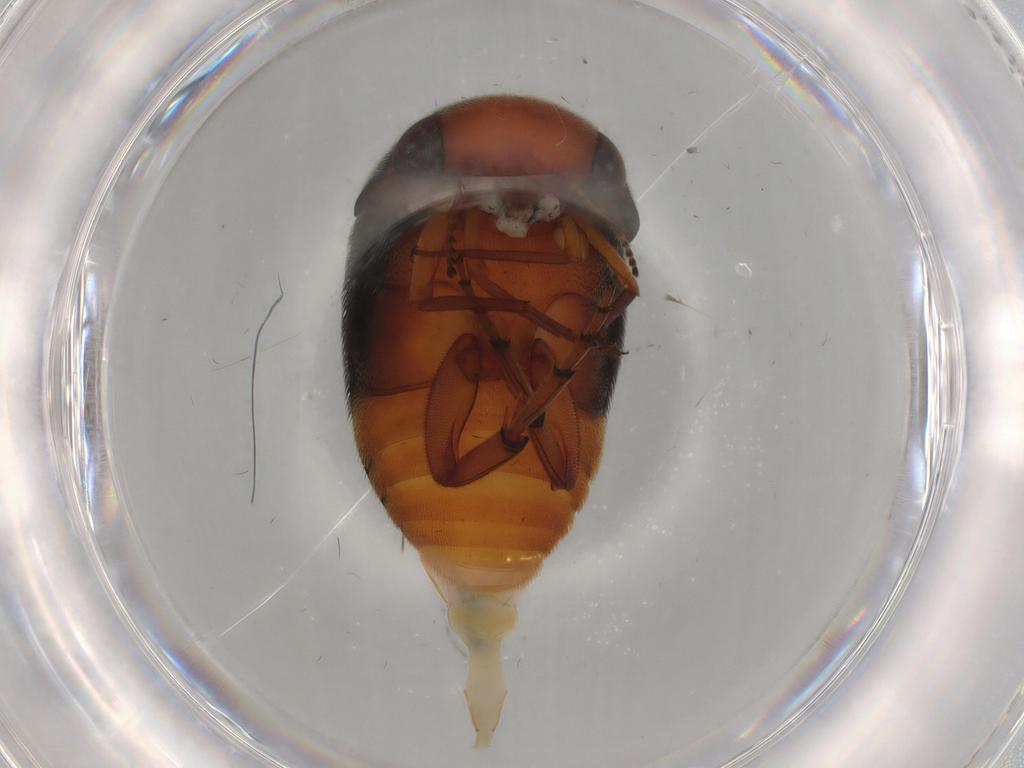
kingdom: Animalia
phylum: Arthropoda
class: Insecta
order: Coleoptera
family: Mordellidae
